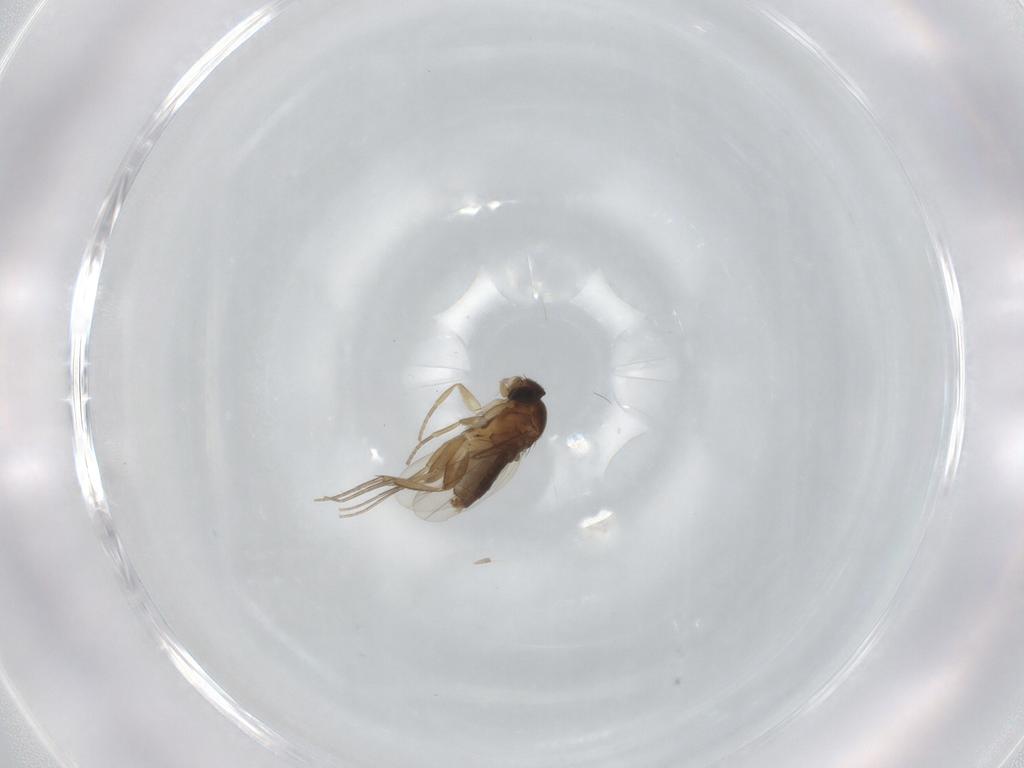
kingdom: Animalia
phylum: Arthropoda
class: Insecta
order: Diptera
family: Phoridae
